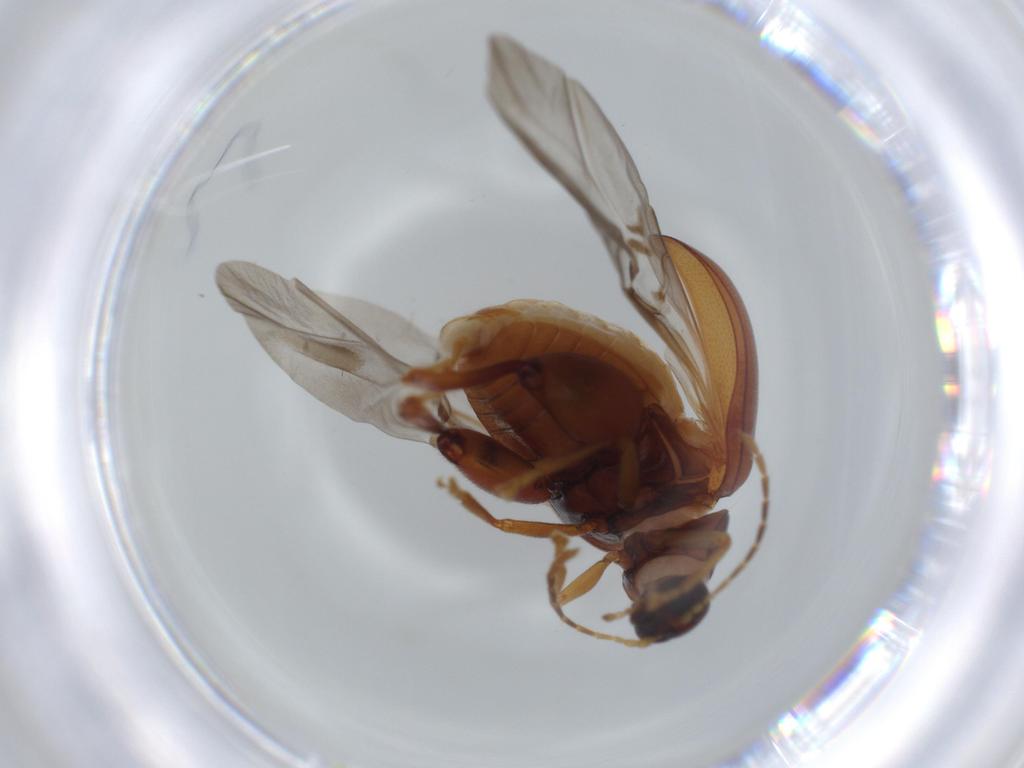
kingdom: Animalia
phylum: Arthropoda
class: Insecta
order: Coleoptera
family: Chrysomelidae
